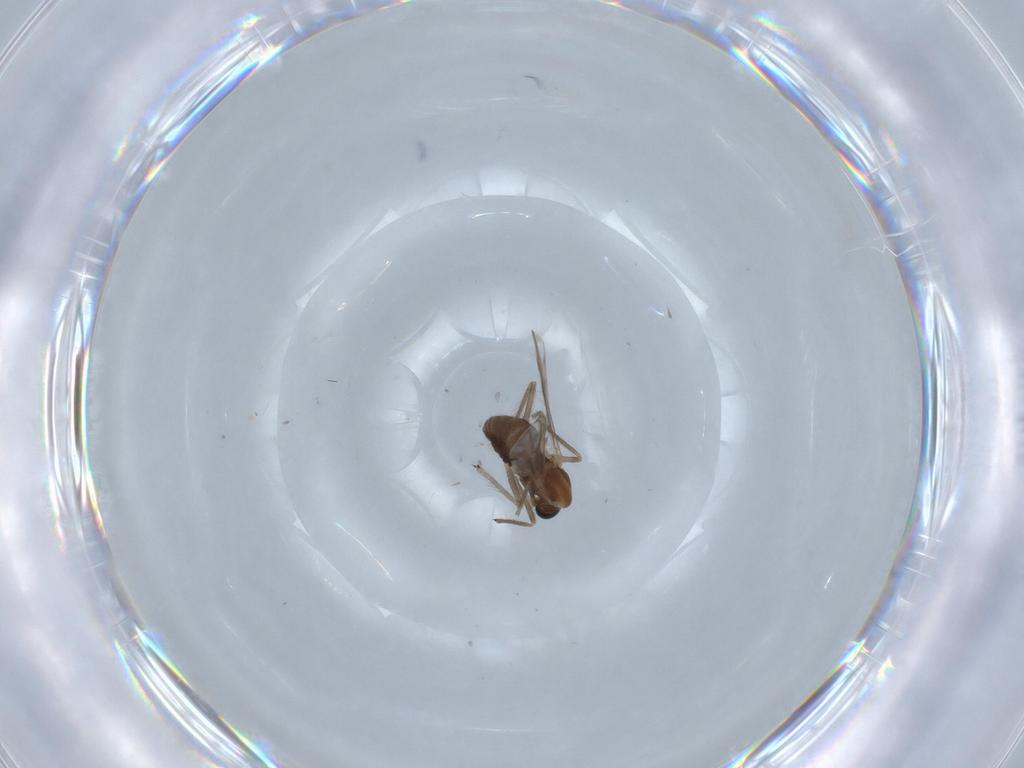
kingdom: Animalia
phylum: Arthropoda
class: Insecta
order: Diptera
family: Chironomidae
